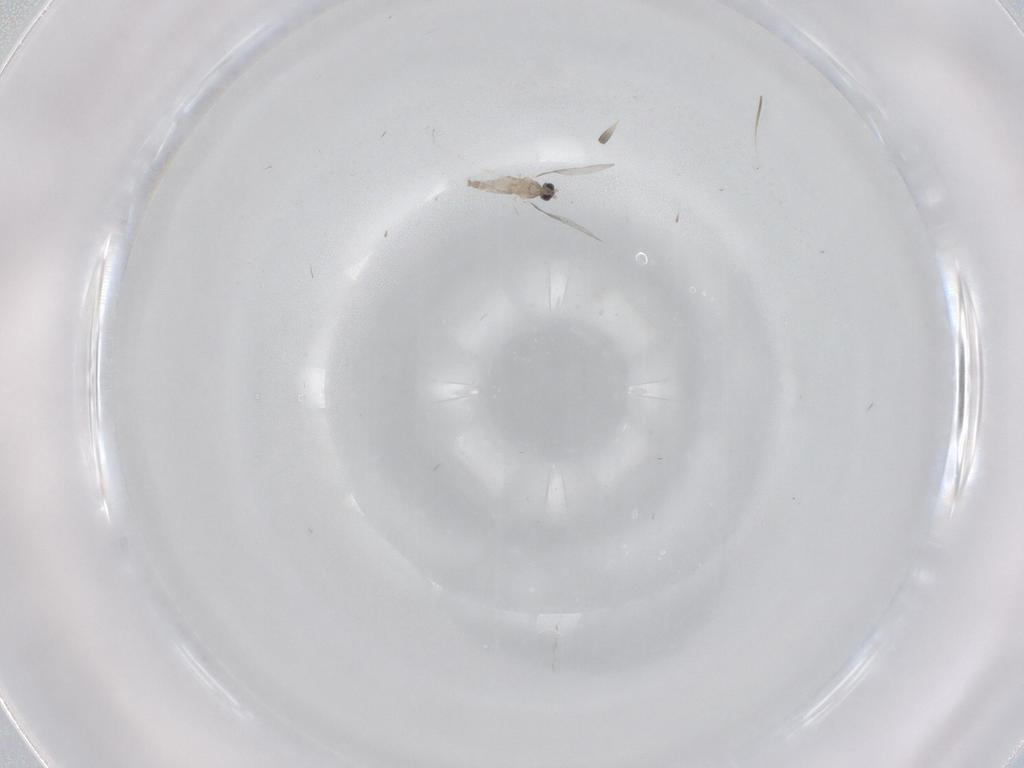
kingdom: Animalia
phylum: Arthropoda
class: Insecta
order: Diptera
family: Cecidomyiidae
